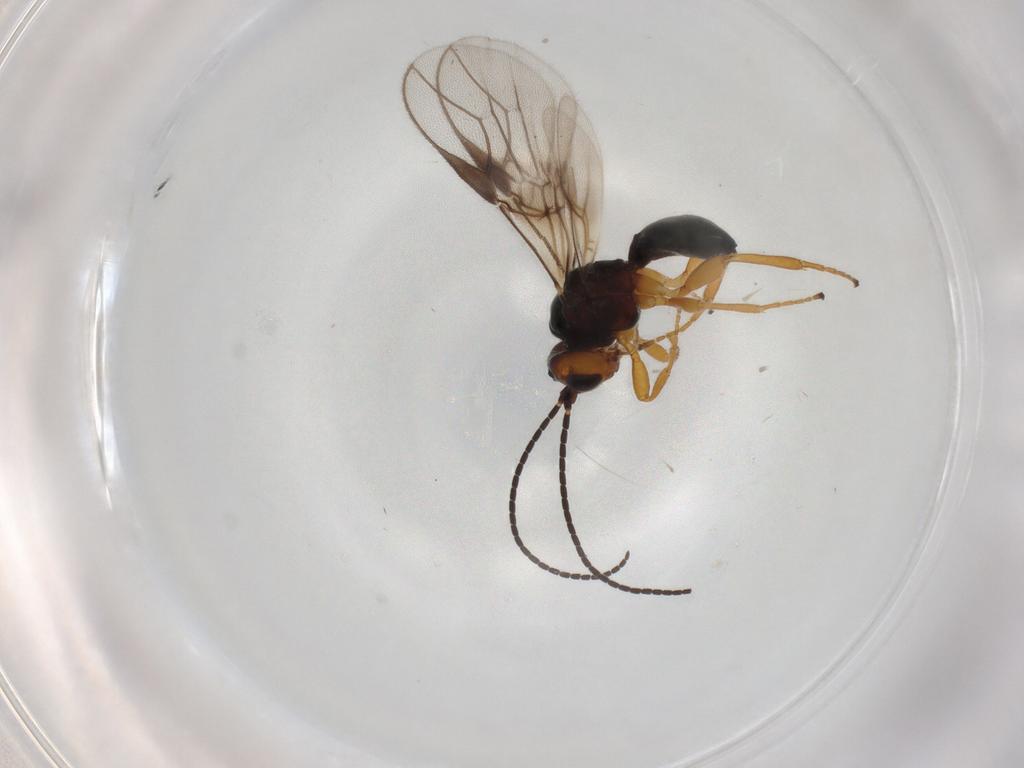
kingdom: Animalia
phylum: Arthropoda
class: Insecta
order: Hymenoptera
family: Braconidae
